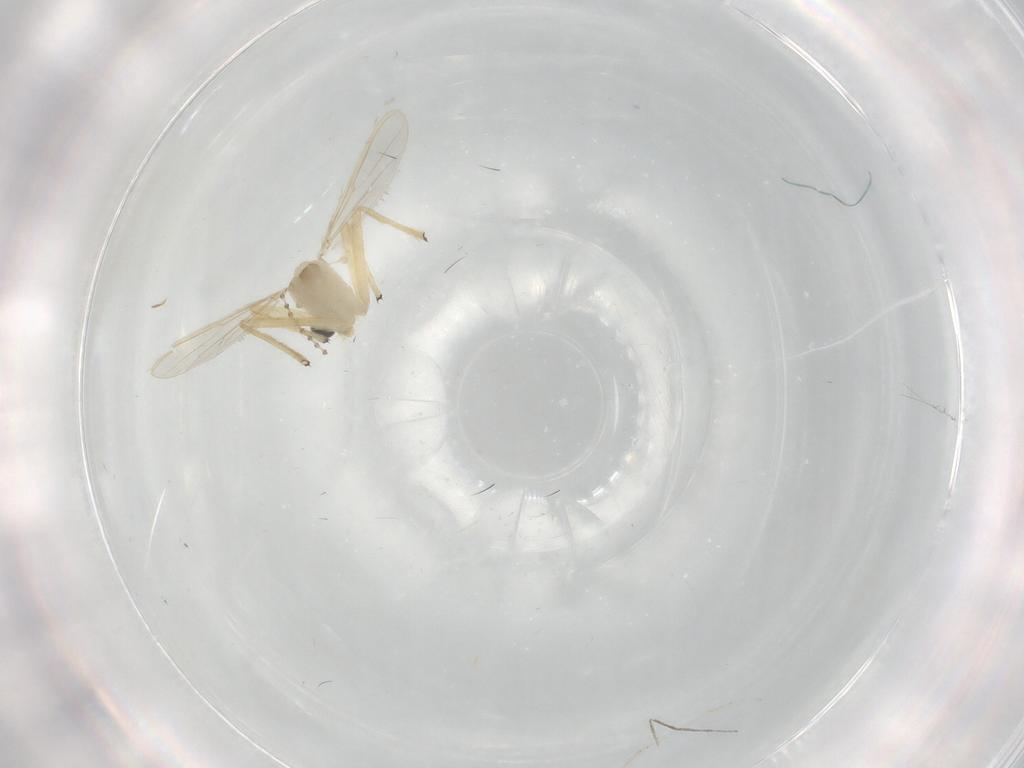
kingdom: Animalia
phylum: Arthropoda
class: Insecta
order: Diptera
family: Cecidomyiidae
